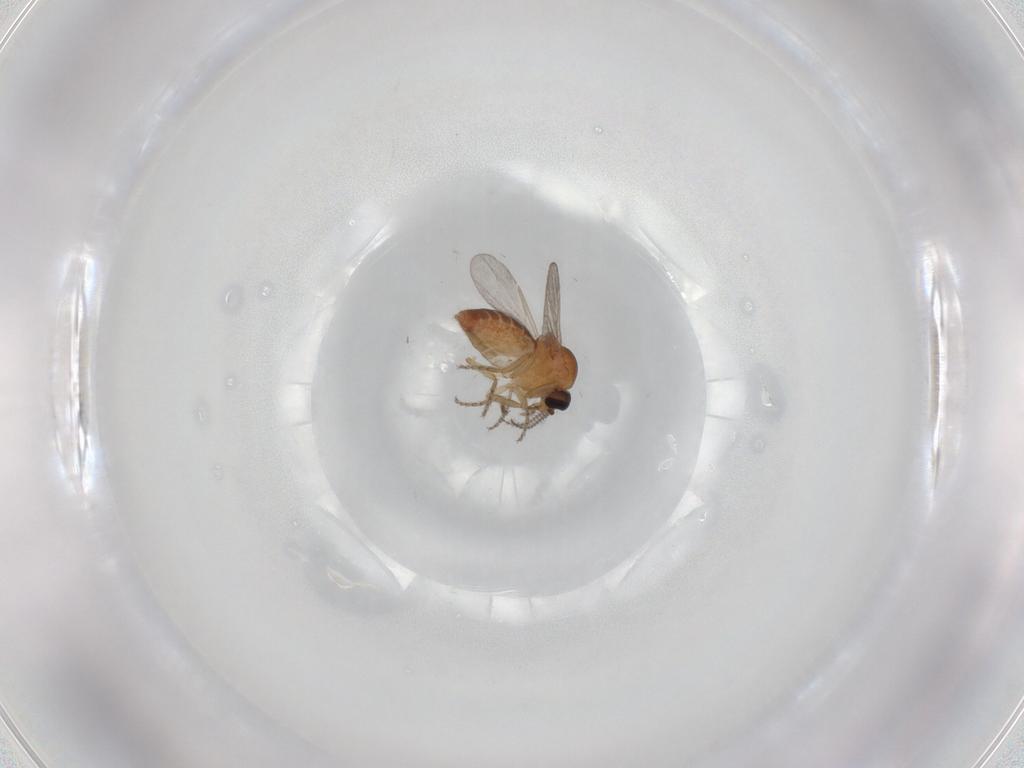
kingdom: Animalia
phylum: Arthropoda
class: Insecta
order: Diptera
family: Ceratopogonidae
